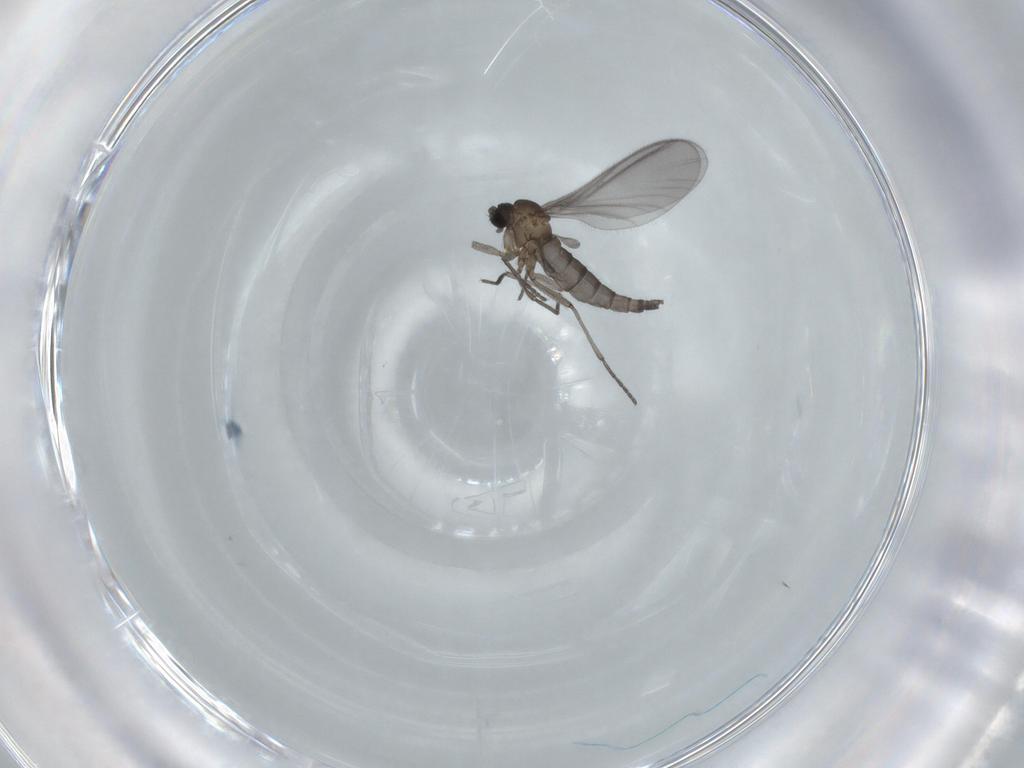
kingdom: Animalia
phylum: Arthropoda
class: Insecta
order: Diptera
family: Sciaridae
